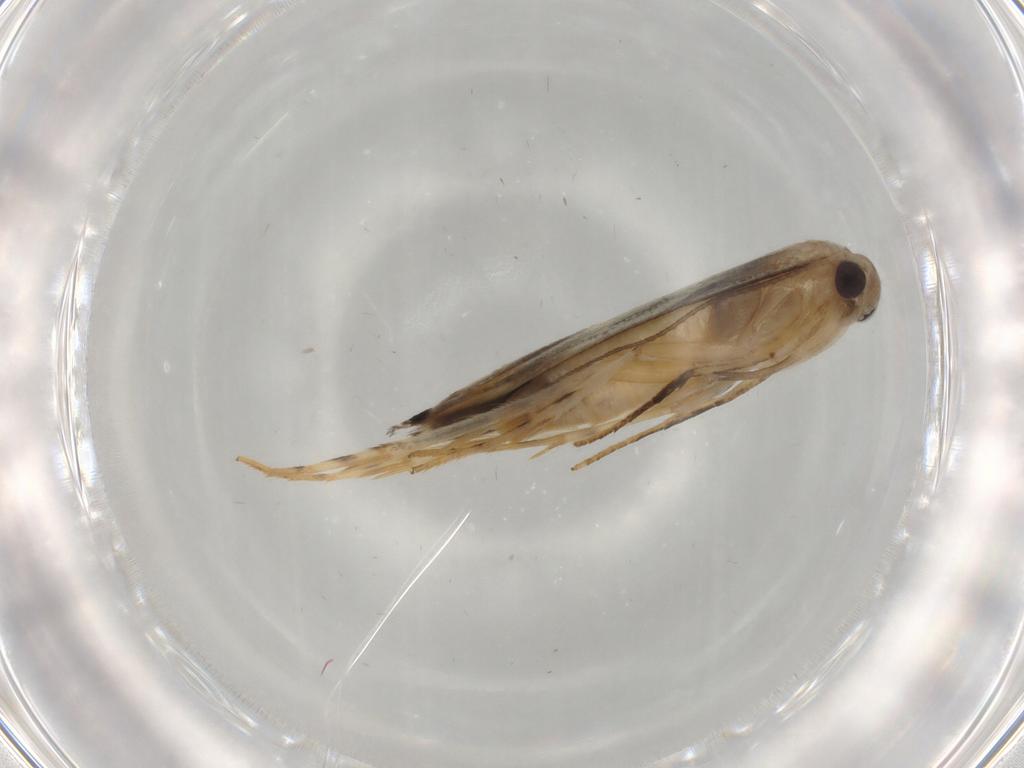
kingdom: Animalia
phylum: Arthropoda
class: Insecta
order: Lepidoptera
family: Gelechiidae
